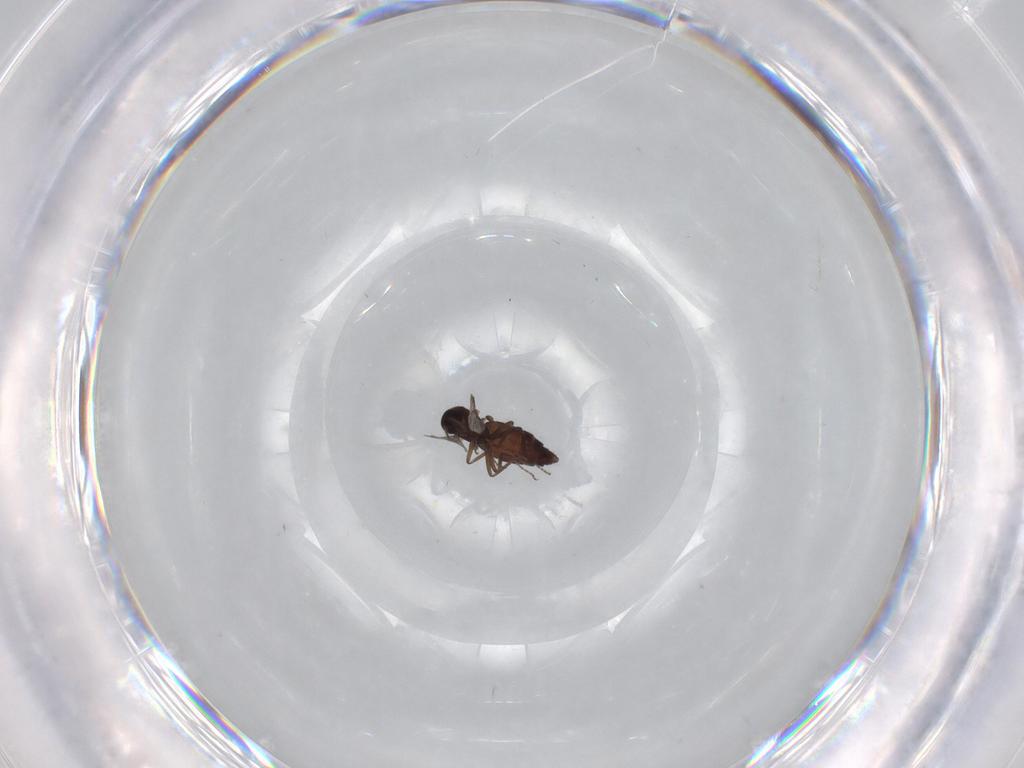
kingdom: Animalia
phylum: Arthropoda
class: Insecta
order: Diptera
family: Ceratopogonidae
